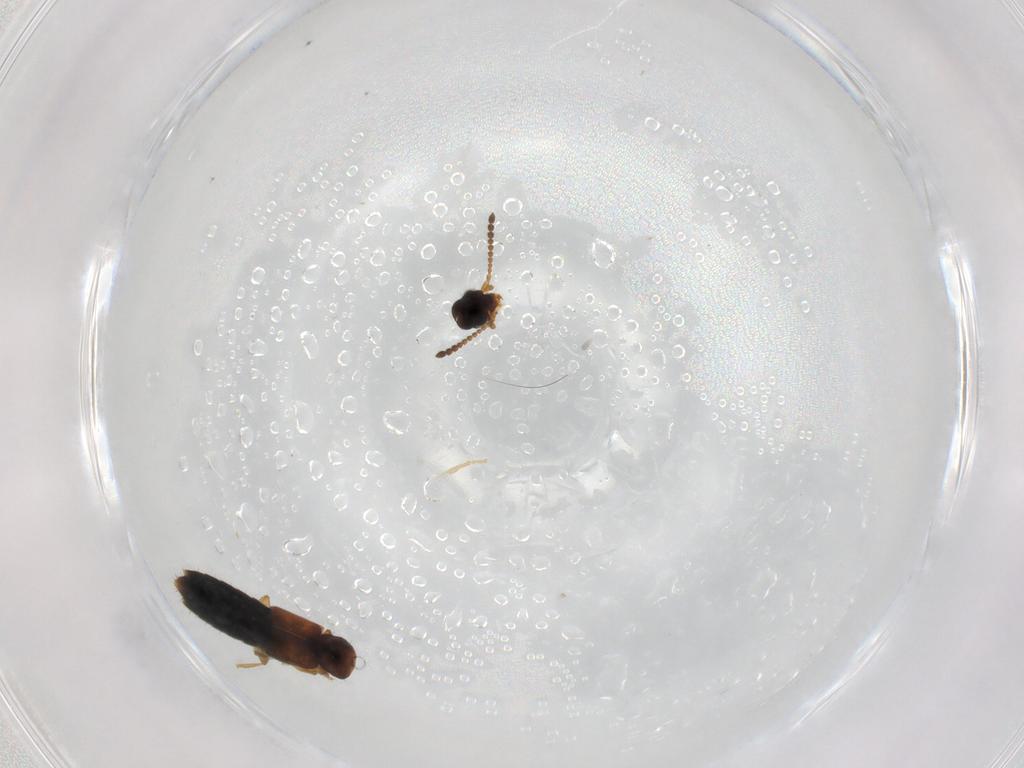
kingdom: Animalia
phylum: Arthropoda
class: Insecta
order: Coleoptera
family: Staphylinidae
